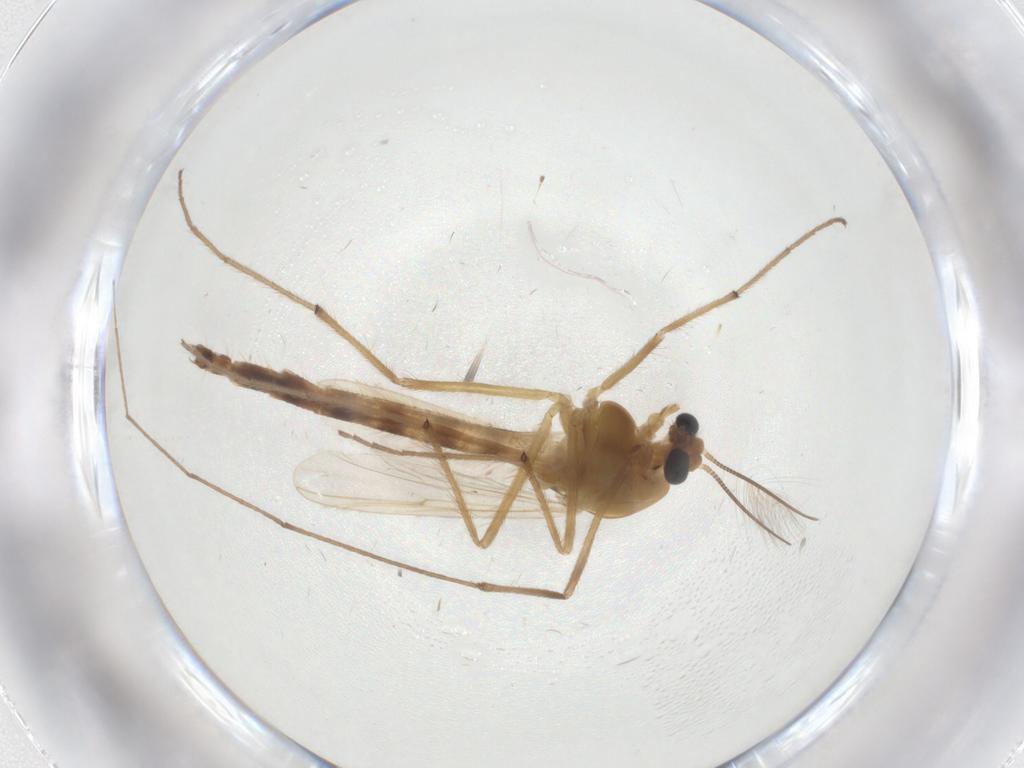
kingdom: Animalia
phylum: Arthropoda
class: Insecta
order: Diptera
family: Chironomidae
